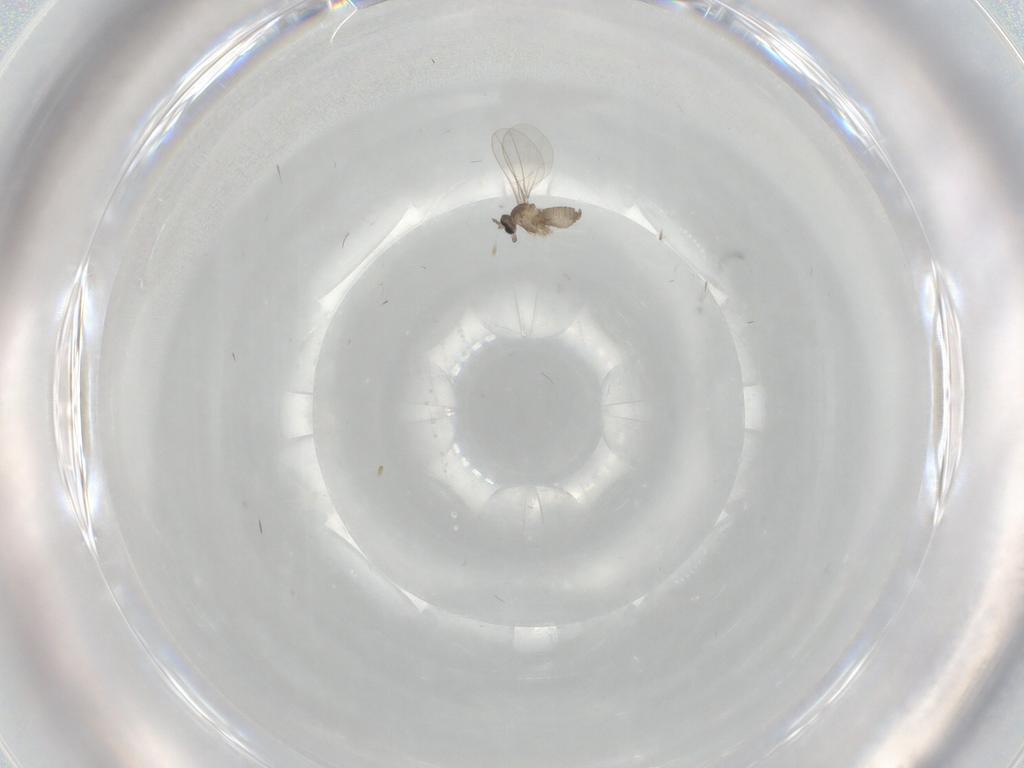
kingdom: Animalia
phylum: Arthropoda
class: Insecta
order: Diptera
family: Cecidomyiidae
